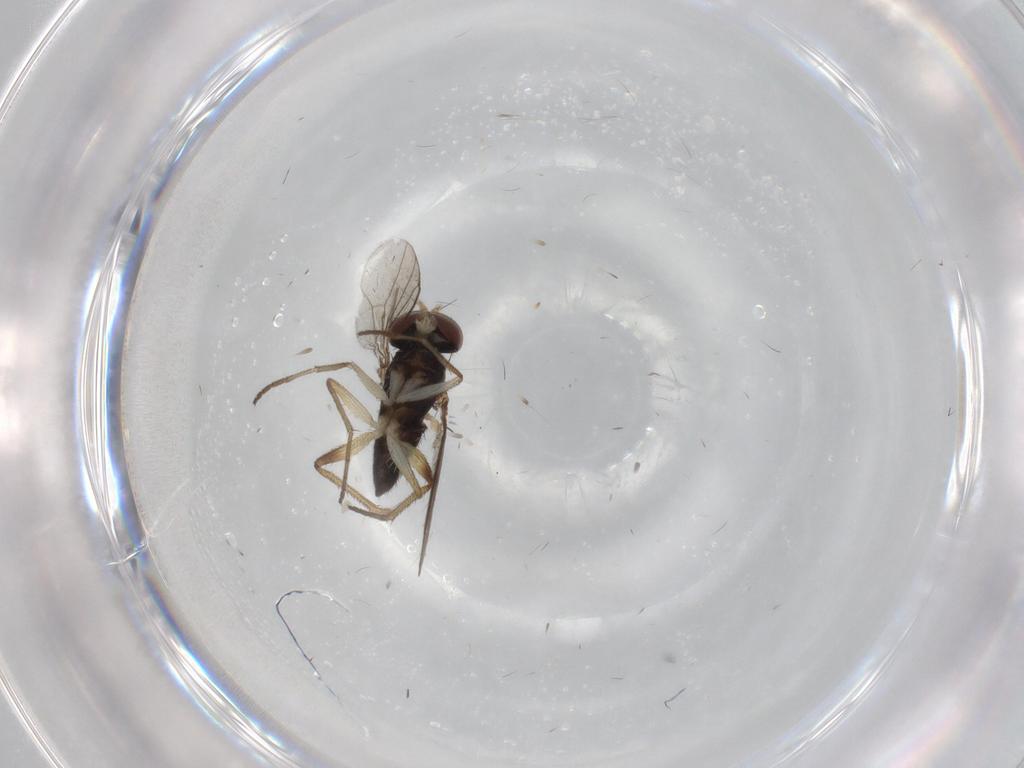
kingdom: Animalia
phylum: Arthropoda
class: Insecta
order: Diptera
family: Dolichopodidae
